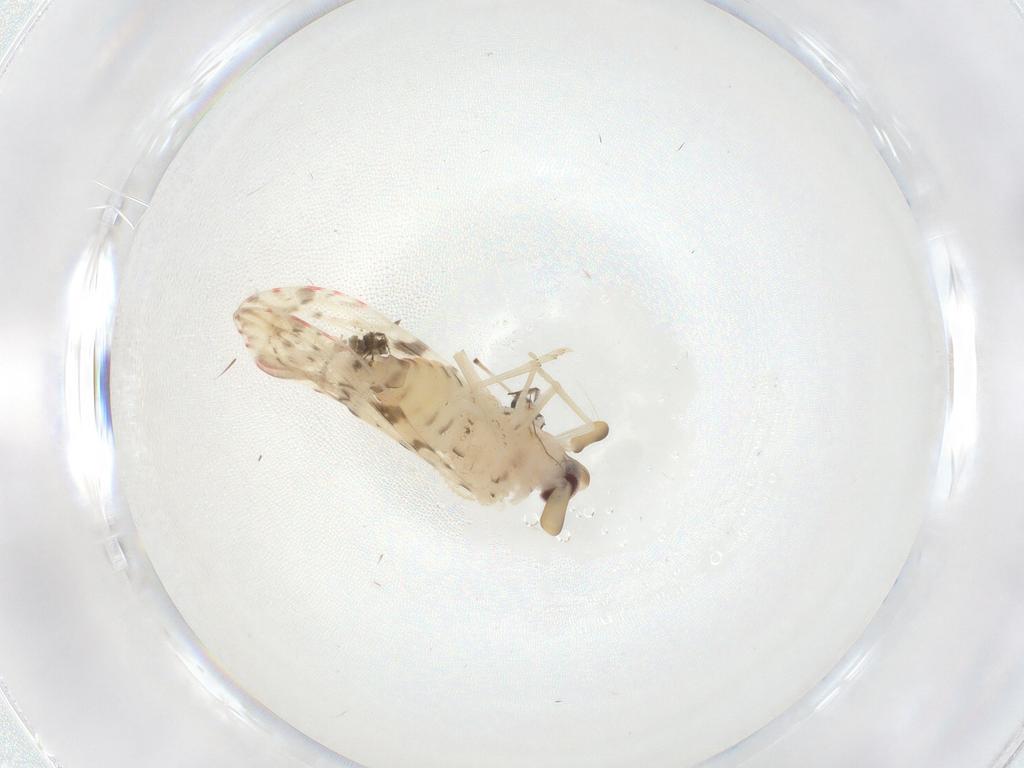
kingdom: Animalia
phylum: Arthropoda
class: Insecta
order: Hemiptera
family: Derbidae
